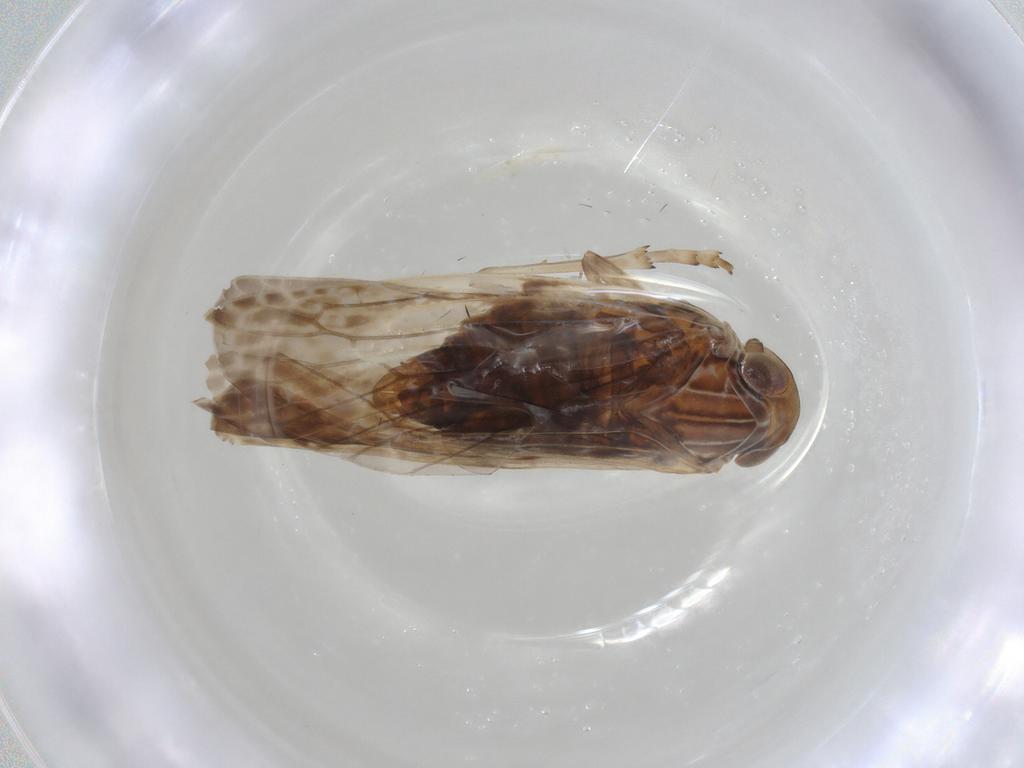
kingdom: Animalia
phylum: Arthropoda
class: Insecta
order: Hemiptera
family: Achilidae
